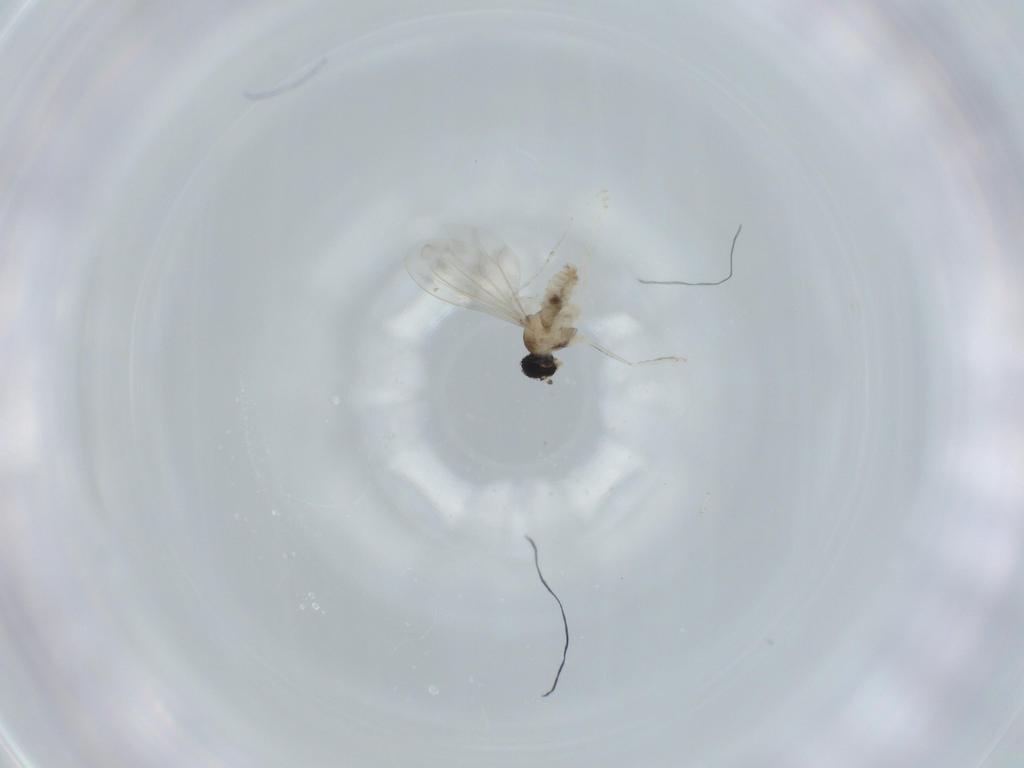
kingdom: Animalia
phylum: Arthropoda
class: Insecta
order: Diptera
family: Cecidomyiidae
